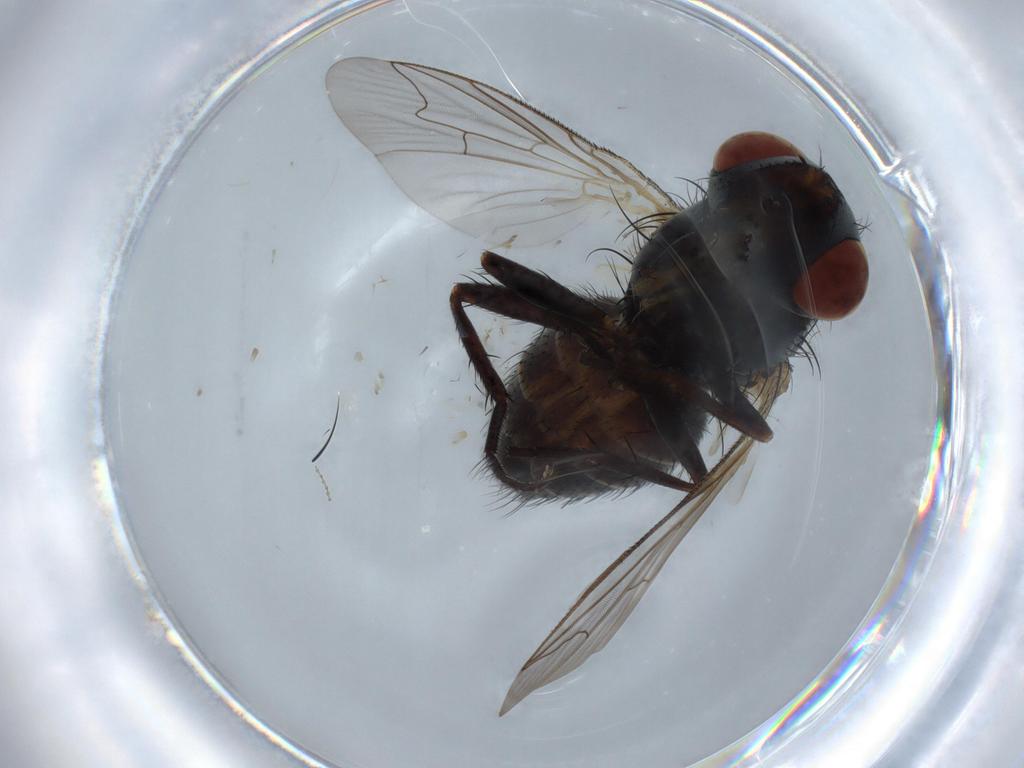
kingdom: Animalia
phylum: Arthropoda
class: Insecta
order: Diptera
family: Sarcophagidae
